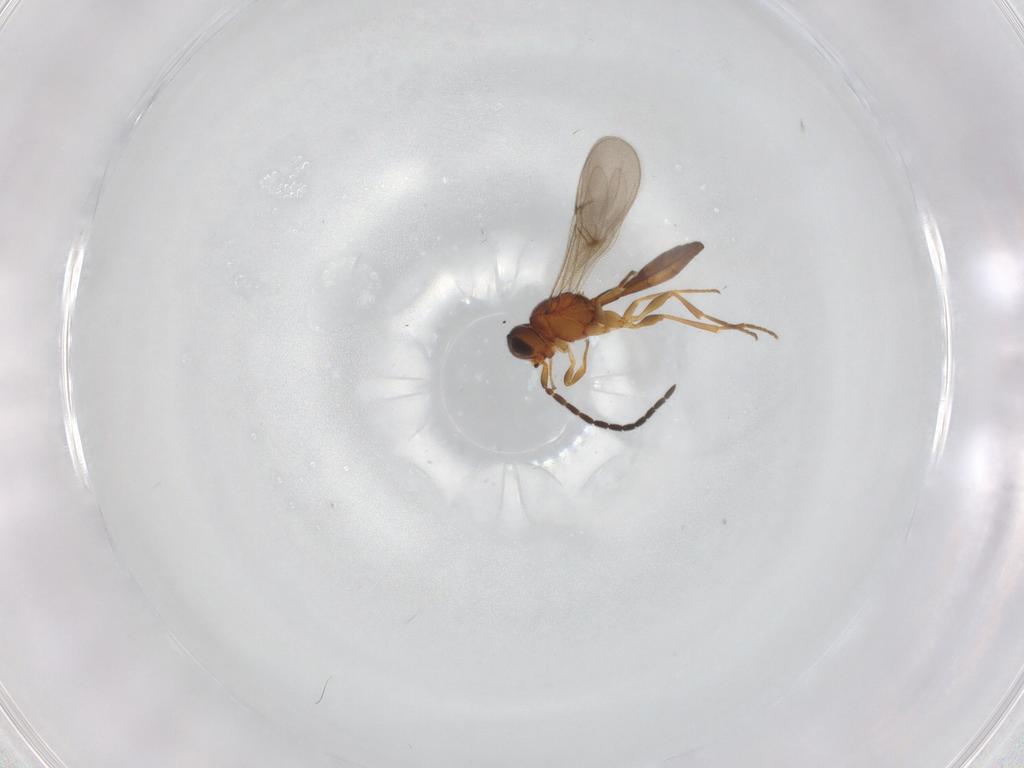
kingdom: Animalia
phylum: Arthropoda
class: Insecta
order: Hymenoptera
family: Scelionidae
